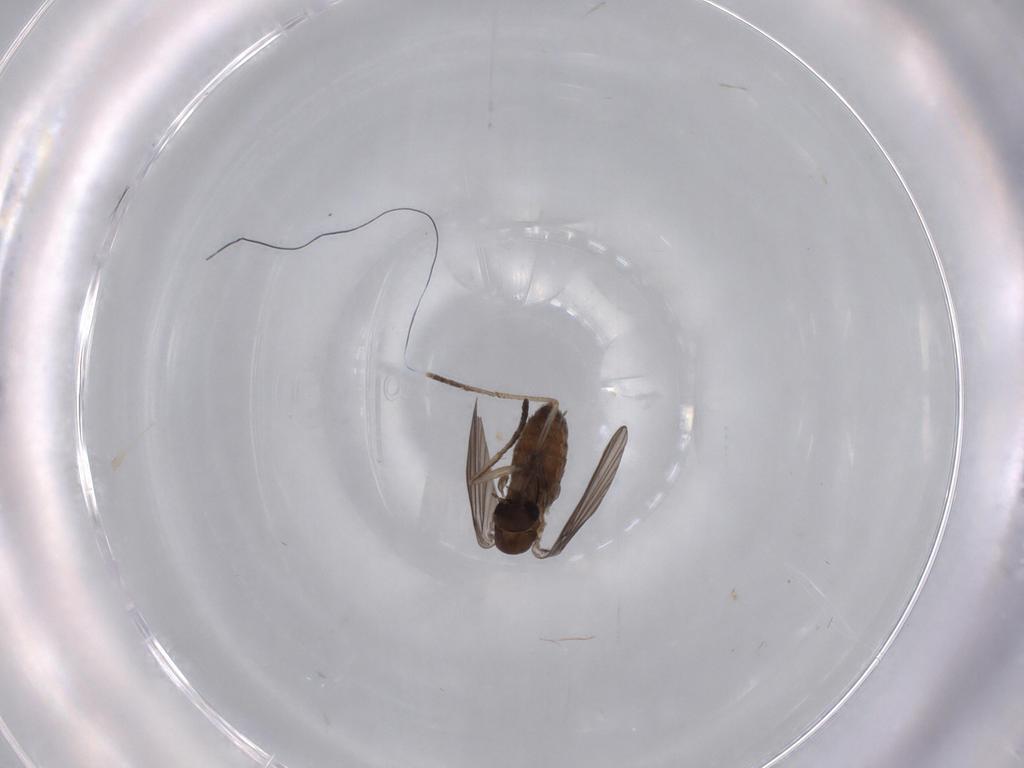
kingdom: Animalia
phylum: Arthropoda
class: Insecta
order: Diptera
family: Psychodidae
